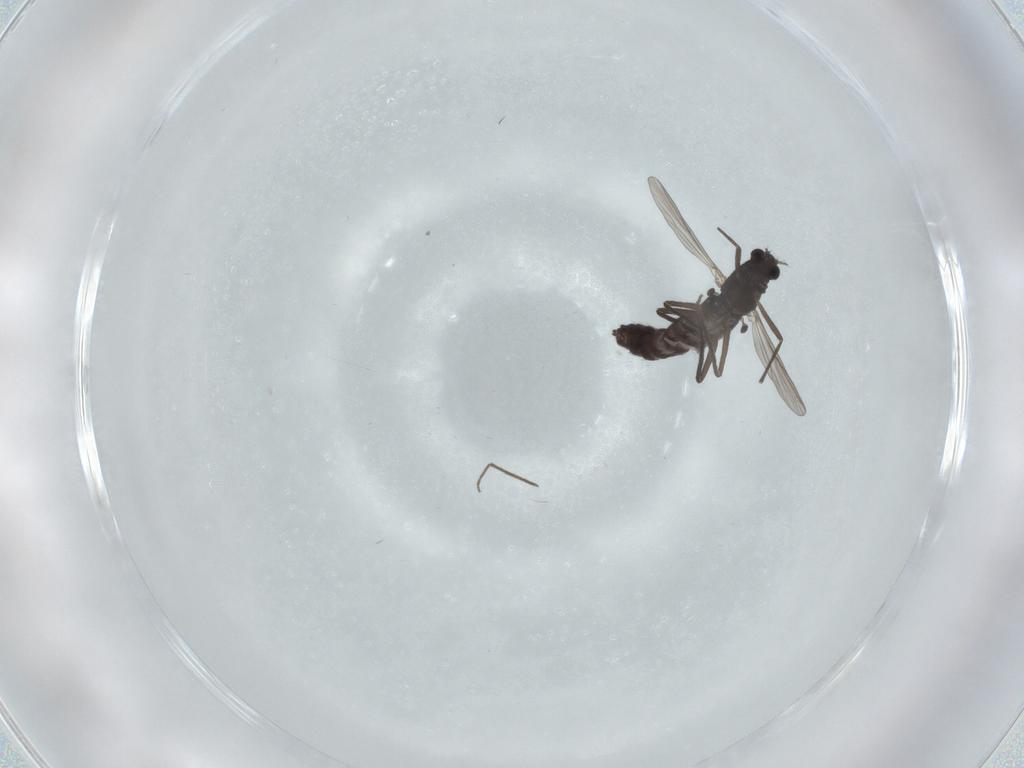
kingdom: Animalia
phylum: Arthropoda
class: Insecta
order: Diptera
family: Chironomidae
